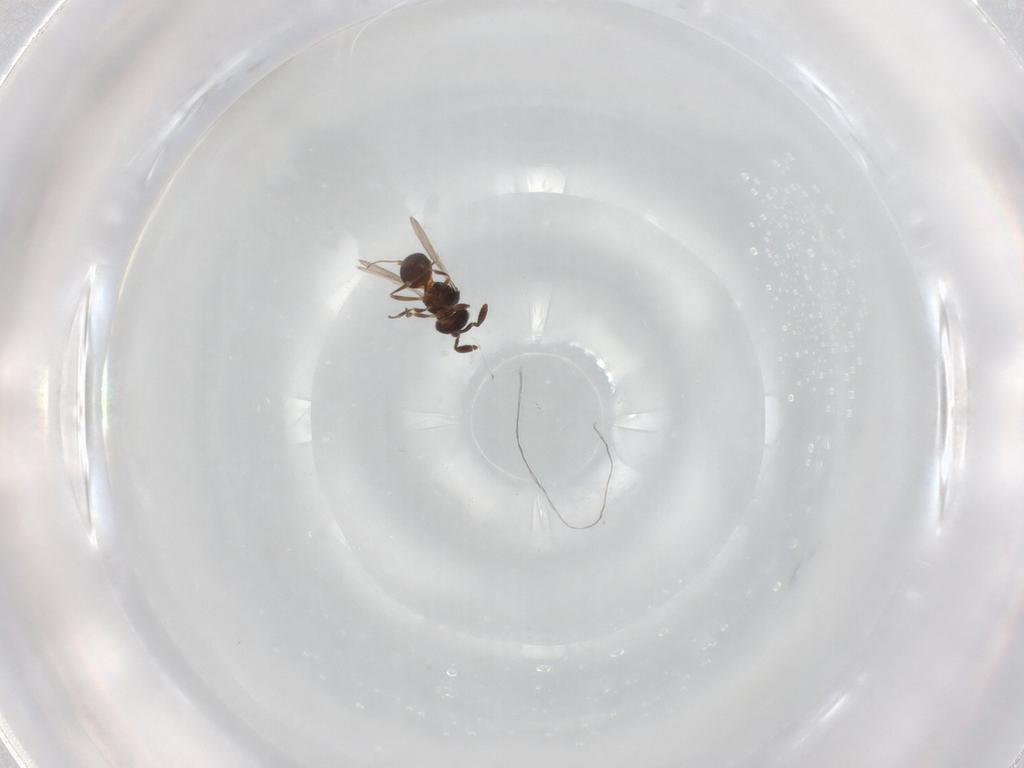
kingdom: Animalia
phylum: Arthropoda
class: Insecta
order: Hymenoptera
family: Scelionidae
